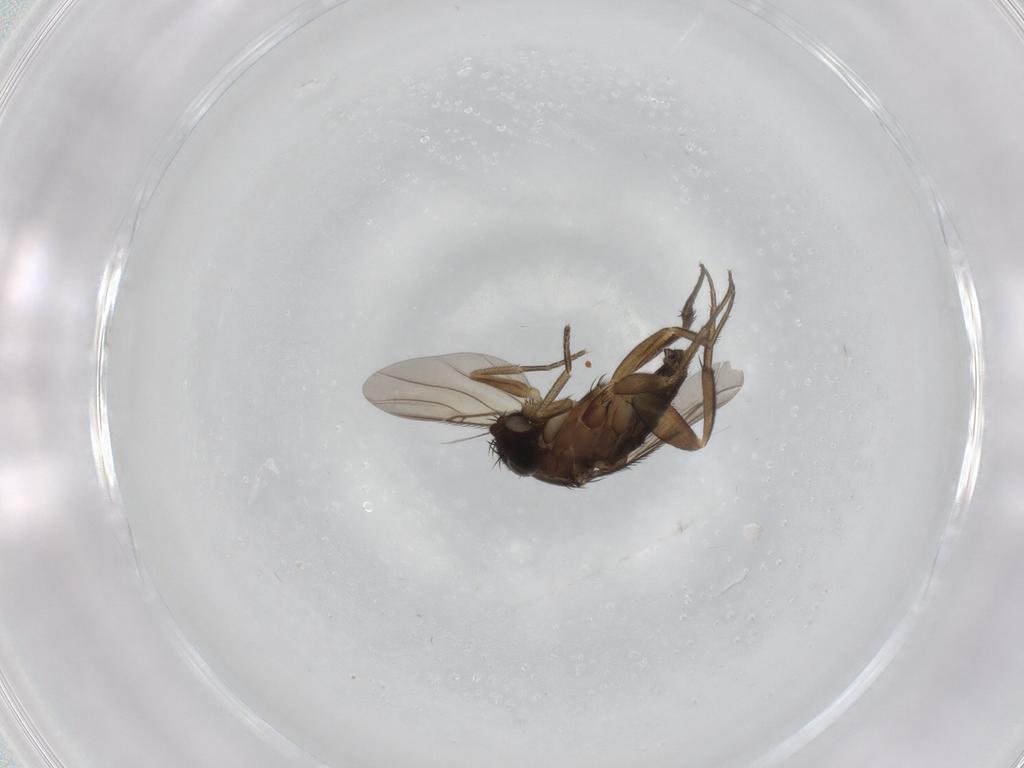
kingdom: Animalia
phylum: Arthropoda
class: Insecta
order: Diptera
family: Phoridae
